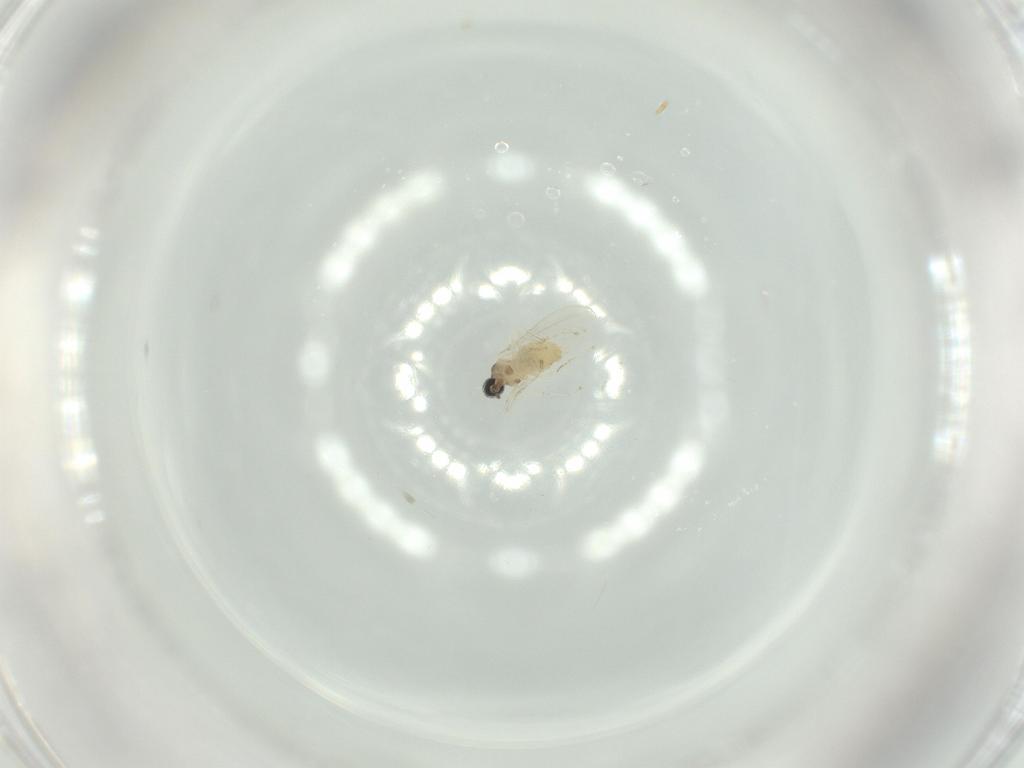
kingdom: Animalia
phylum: Arthropoda
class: Insecta
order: Diptera
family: Cecidomyiidae
